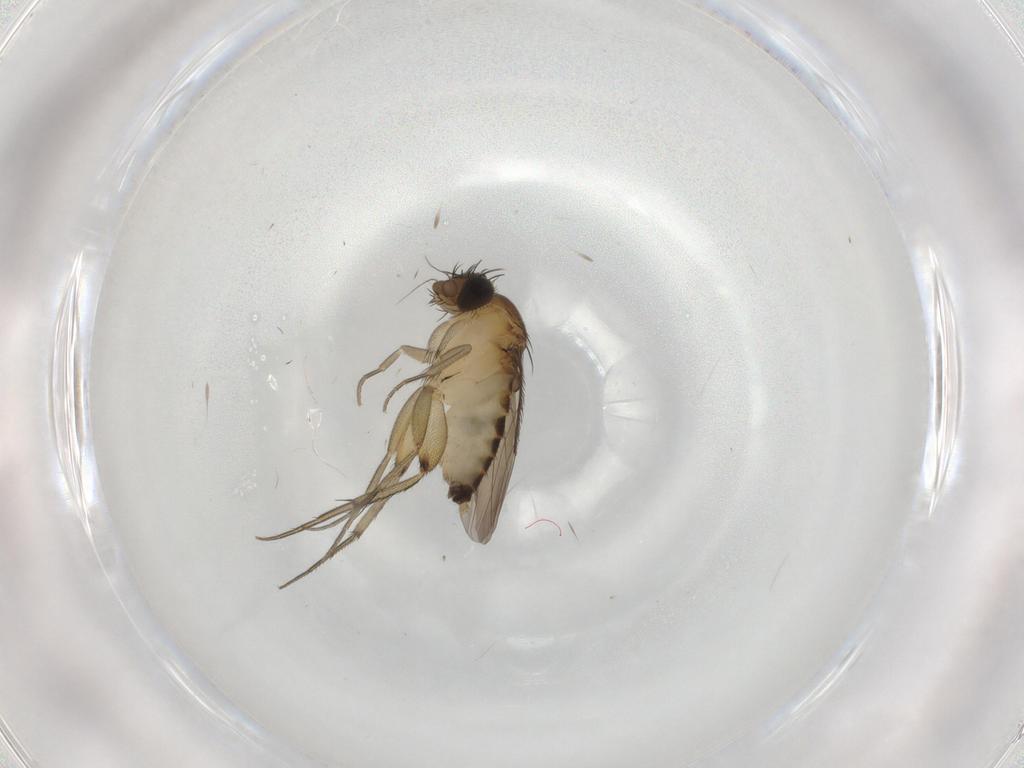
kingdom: Animalia
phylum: Arthropoda
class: Insecta
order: Diptera
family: Phoridae
